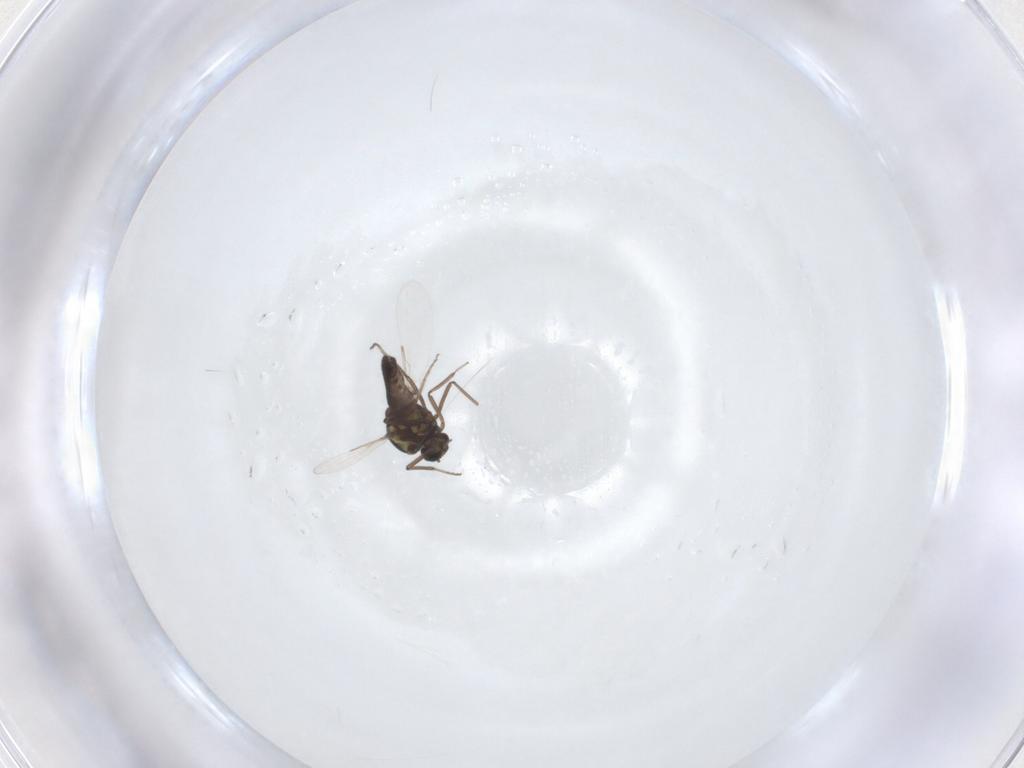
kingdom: Animalia
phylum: Arthropoda
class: Insecta
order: Diptera
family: Ceratopogonidae
